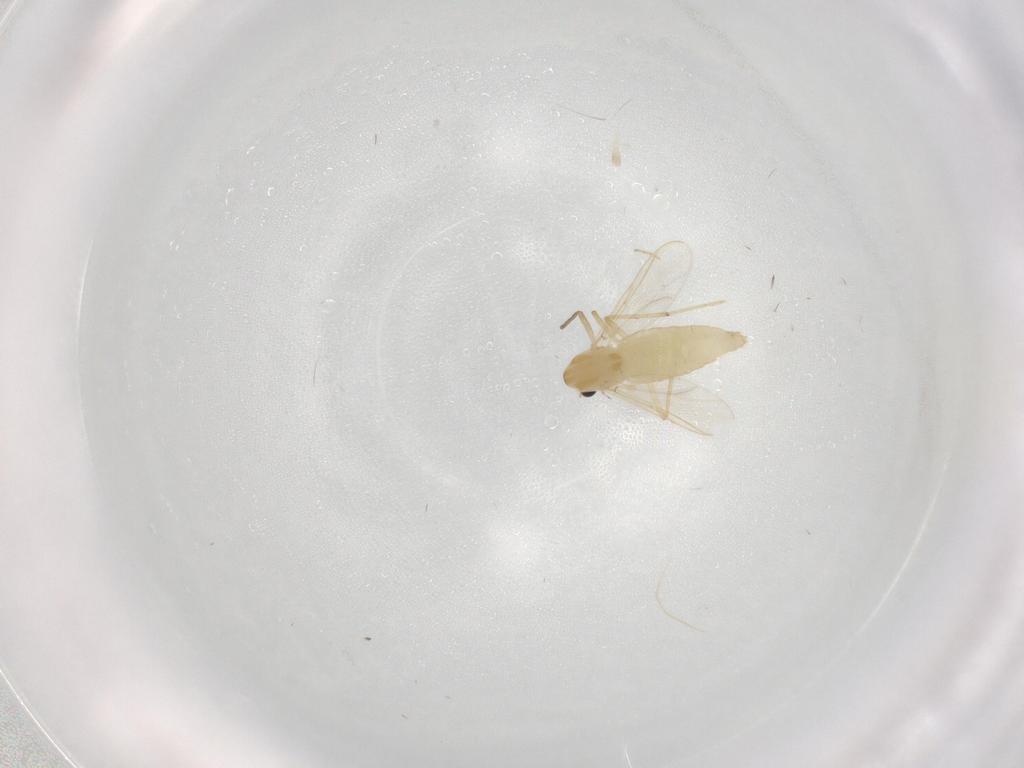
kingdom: Animalia
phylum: Arthropoda
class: Insecta
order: Diptera
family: Chironomidae
